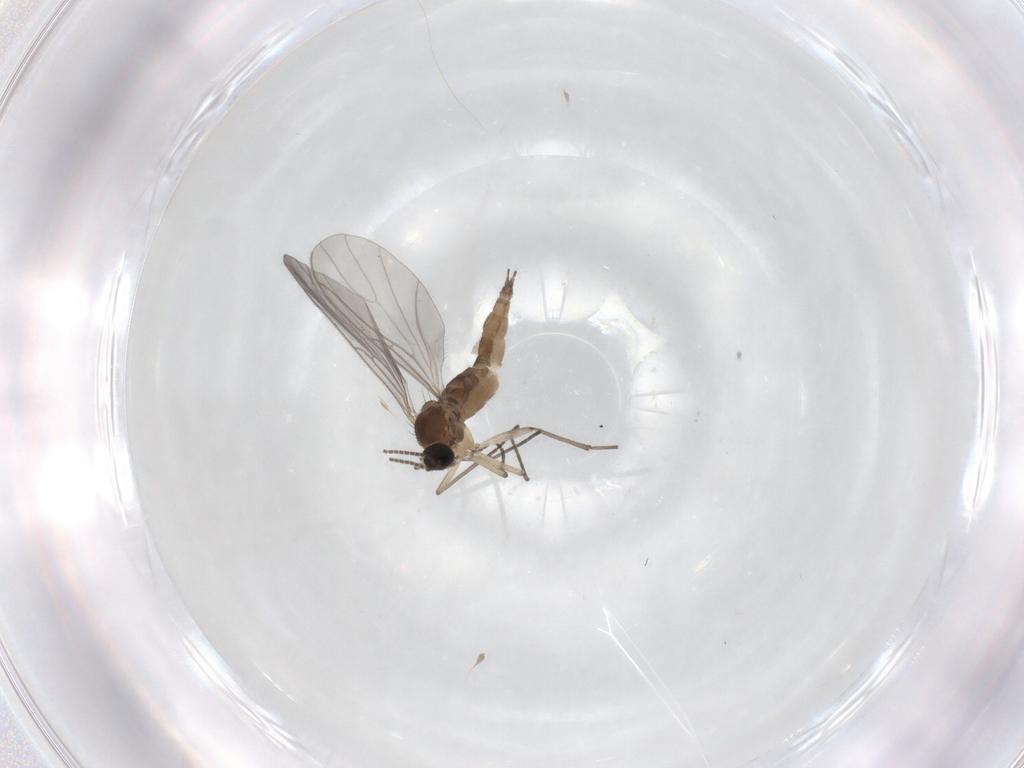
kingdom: Animalia
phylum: Arthropoda
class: Insecta
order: Diptera
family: Sciaridae
